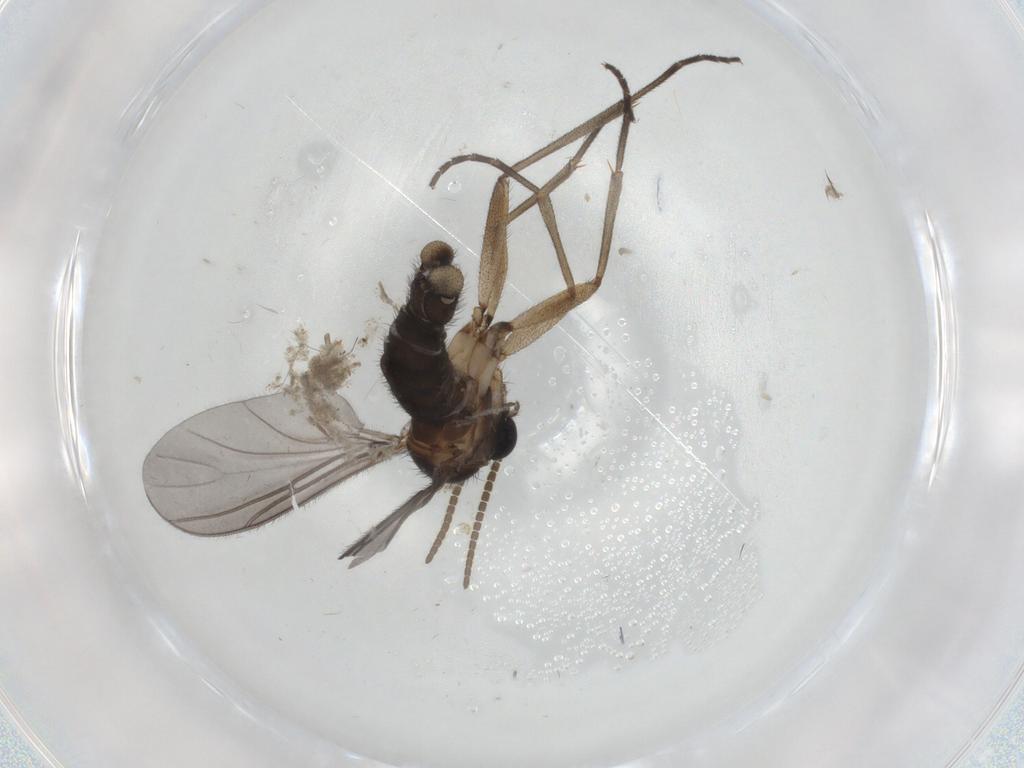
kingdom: Animalia
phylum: Arthropoda
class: Insecta
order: Diptera
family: Sciaridae
